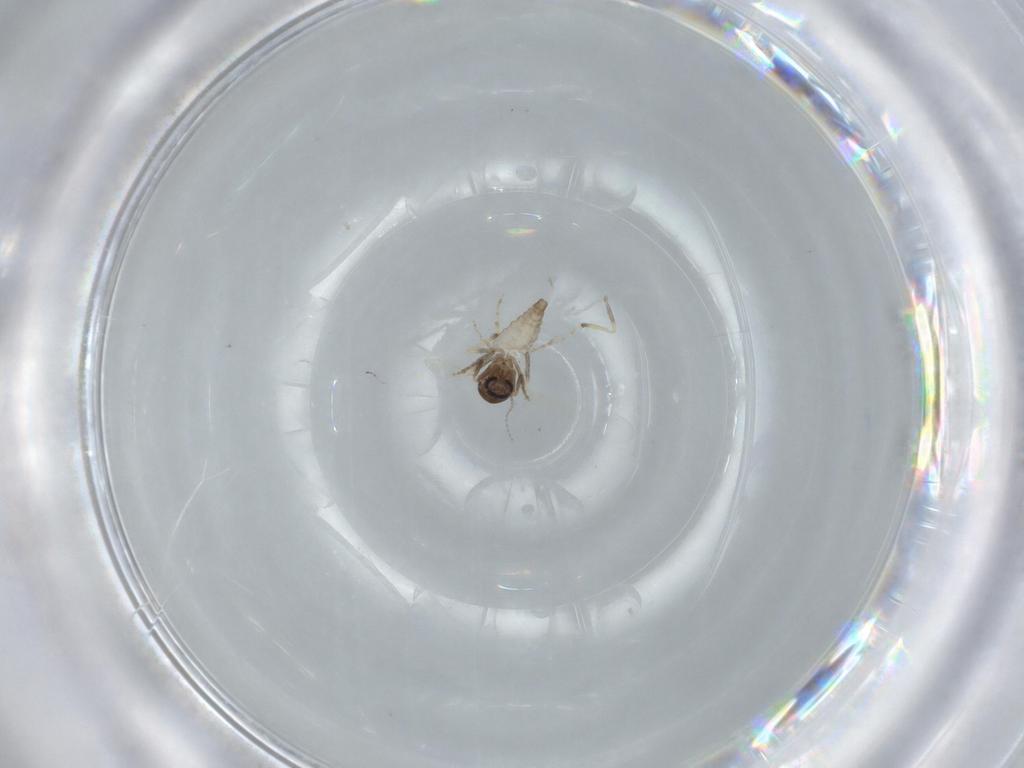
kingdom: Animalia
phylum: Arthropoda
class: Insecta
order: Diptera
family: Ceratopogonidae
